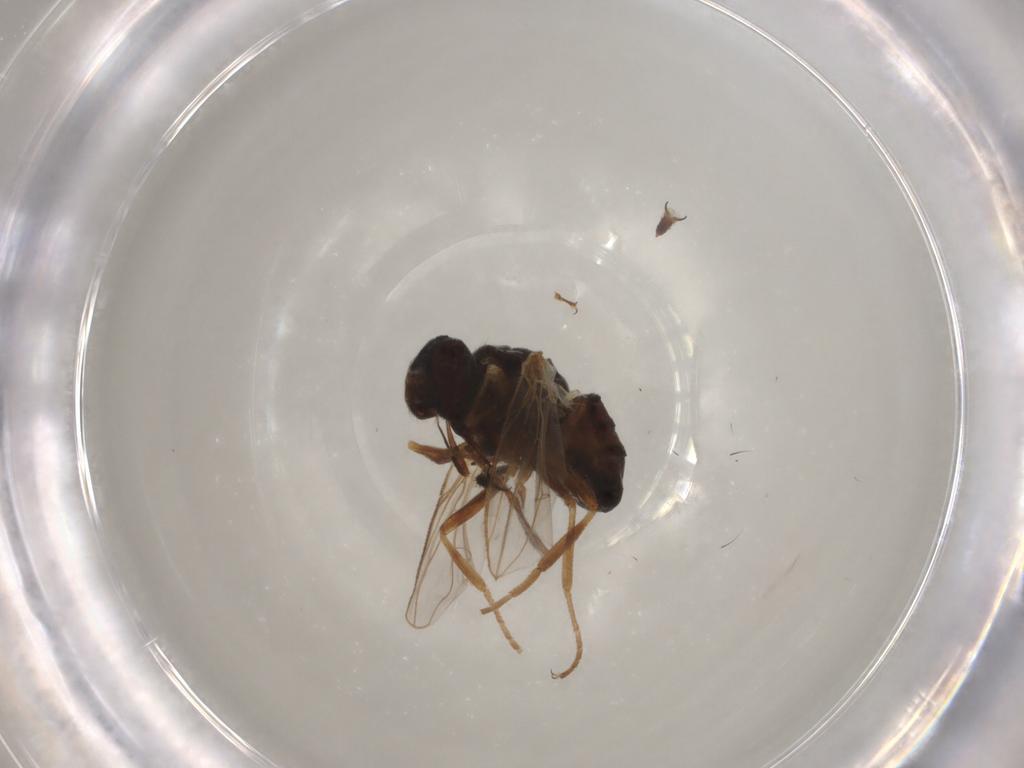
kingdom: Animalia
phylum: Arthropoda
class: Insecta
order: Diptera
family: Milichiidae
